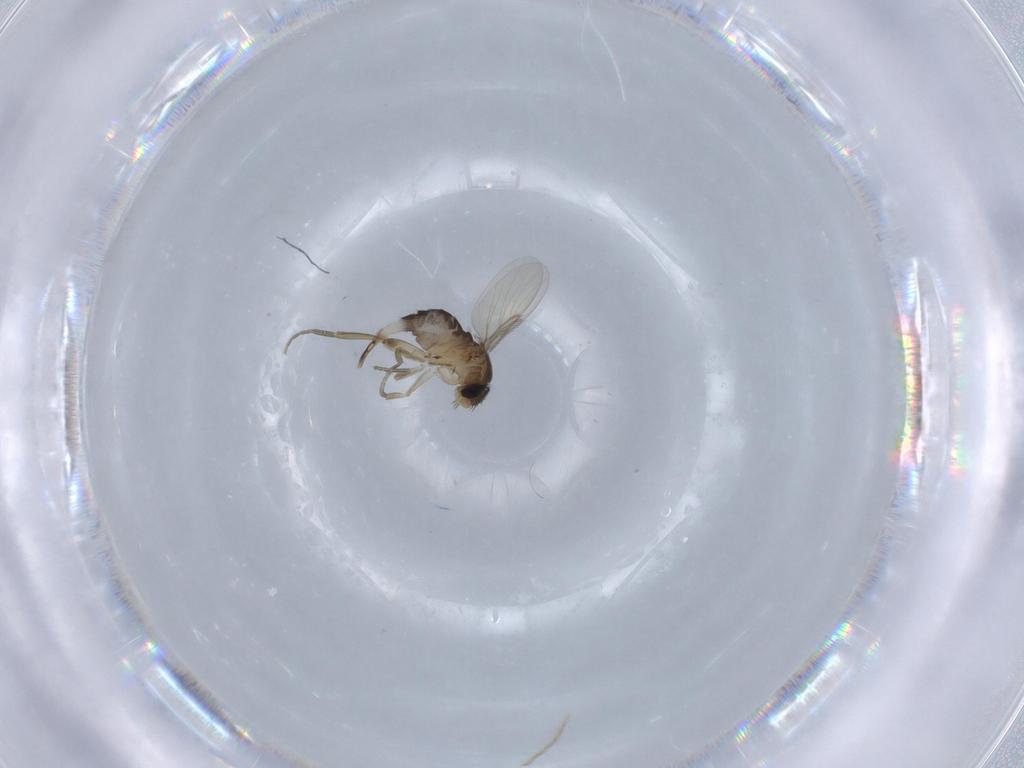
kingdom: Animalia
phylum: Arthropoda
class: Insecta
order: Diptera
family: Phoridae
